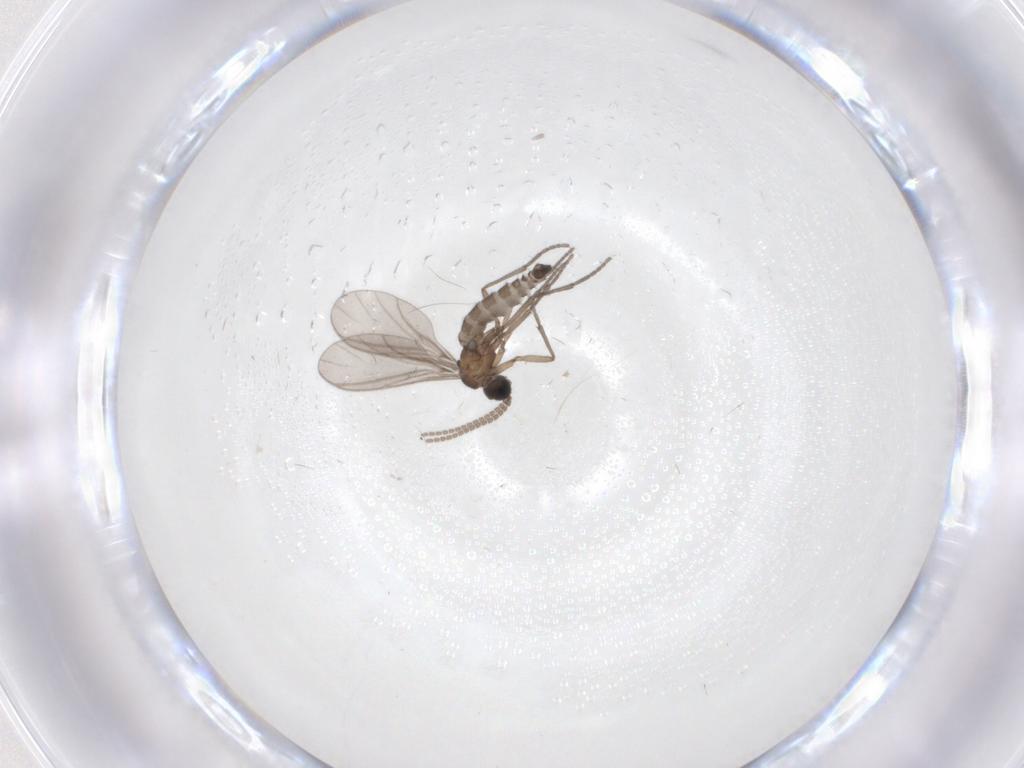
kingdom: Animalia
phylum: Arthropoda
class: Insecta
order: Diptera
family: Sciaridae
